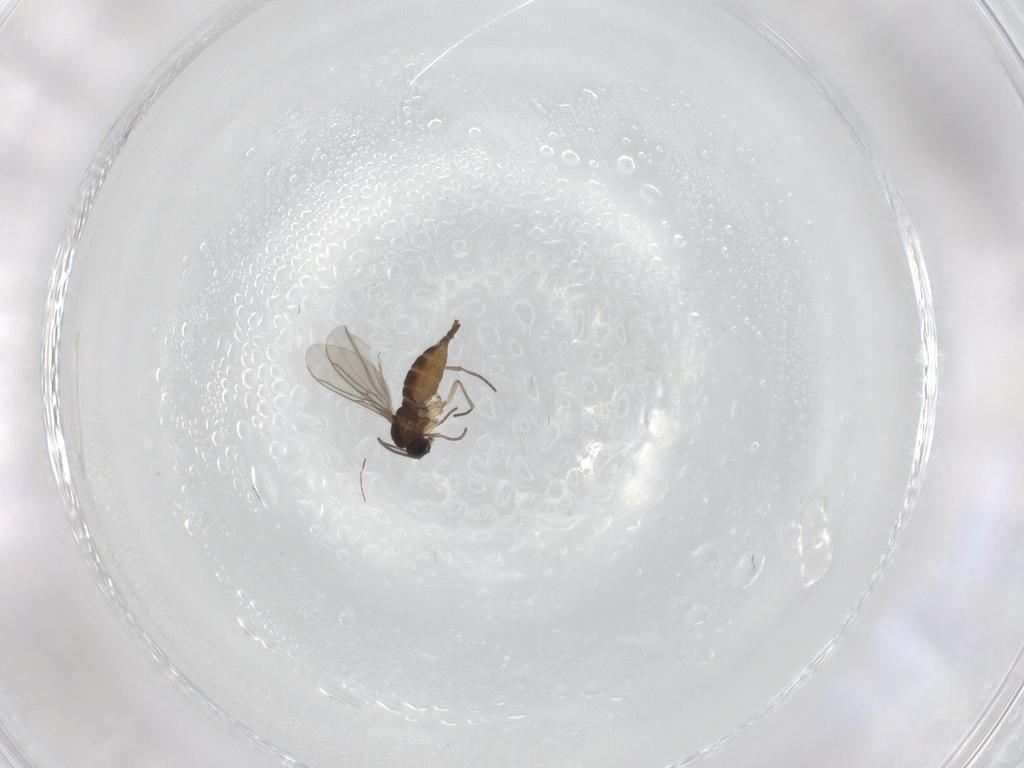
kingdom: Animalia
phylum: Arthropoda
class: Insecta
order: Diptera
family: Sciaridae
